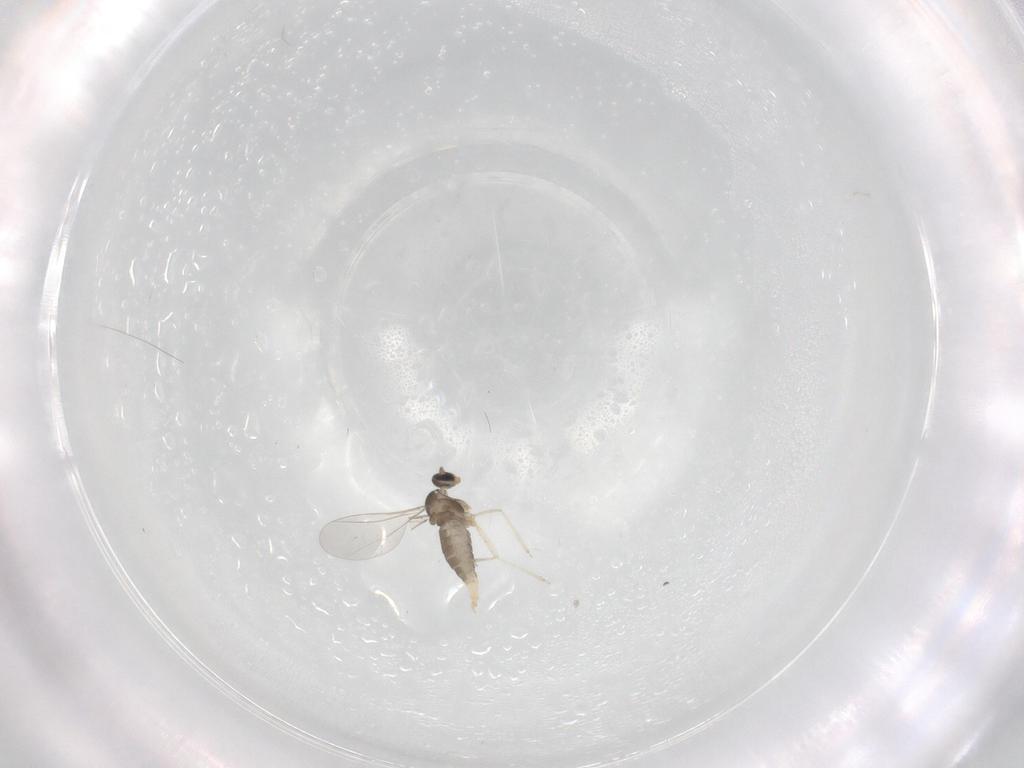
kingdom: Animalia
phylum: Arthropoda
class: Insecta
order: Diptera
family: Cecidomyiidae
